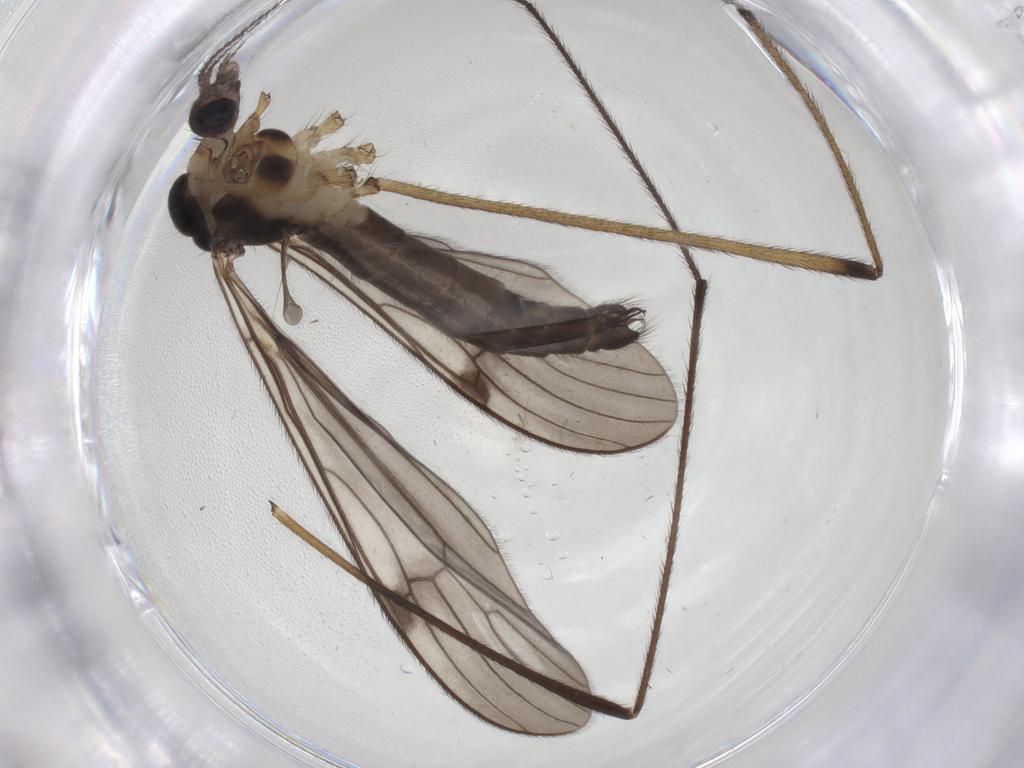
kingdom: Animalia
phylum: Arthropoda
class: Insecta
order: Diptera
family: Limoniidae
